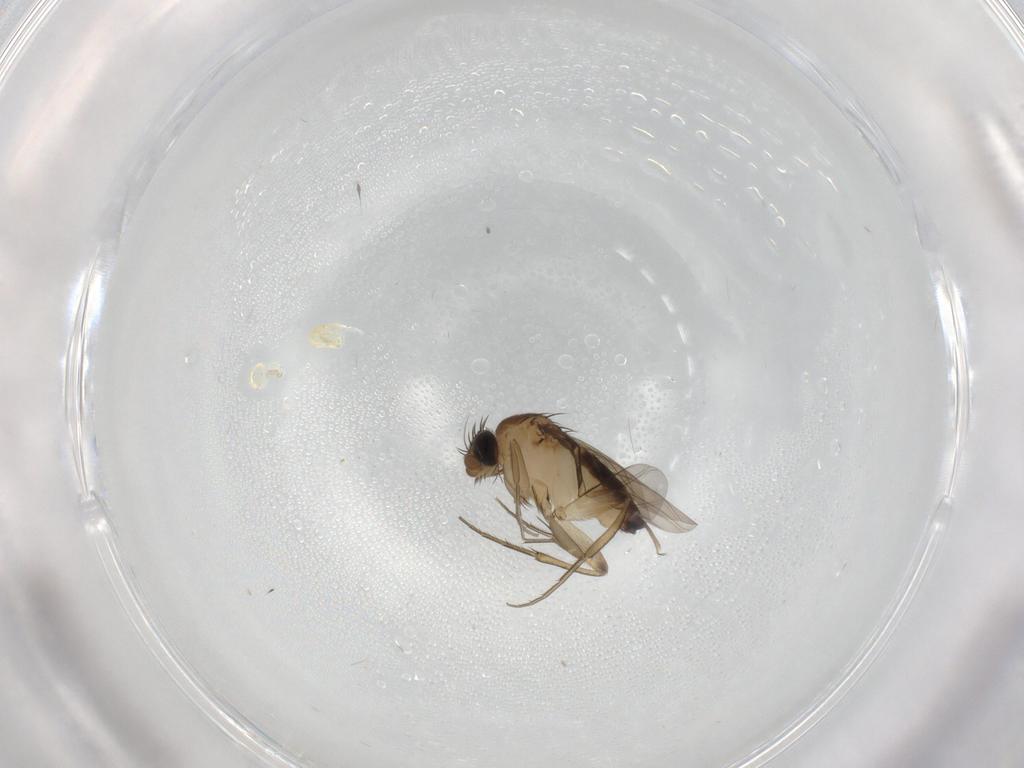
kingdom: Animalia
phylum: Arthropoda
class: Insecta
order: Diptera
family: Phoridae
